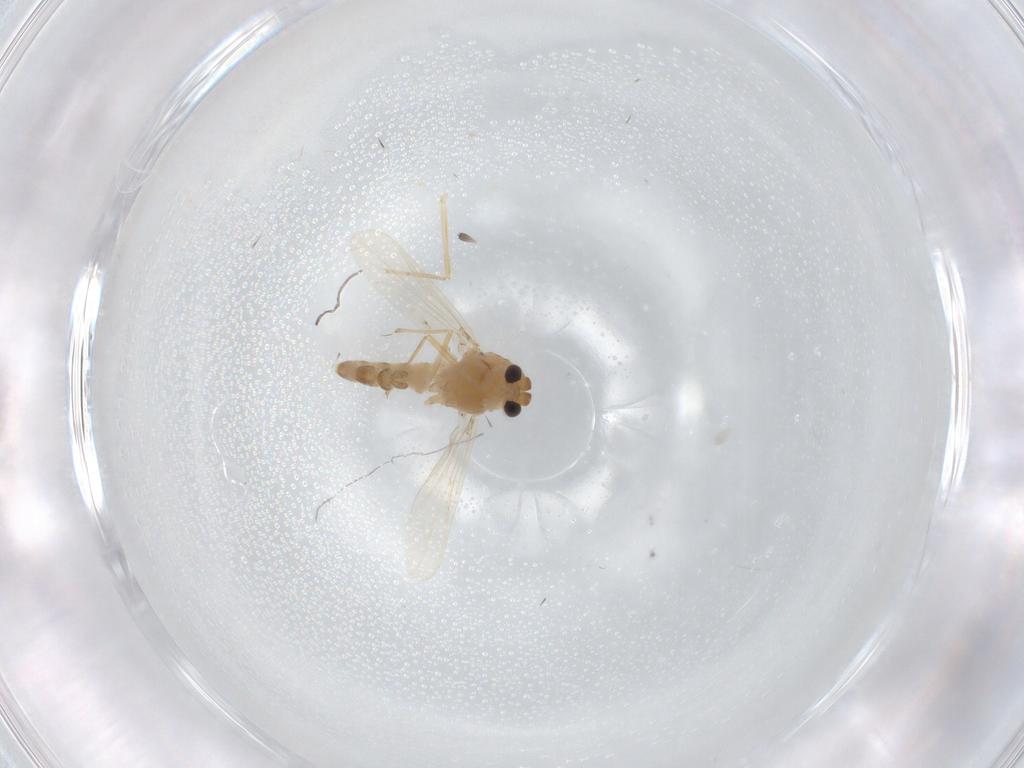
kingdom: Animalia
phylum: Arthropoda
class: Insecta
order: Diptera
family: Chironomidae
